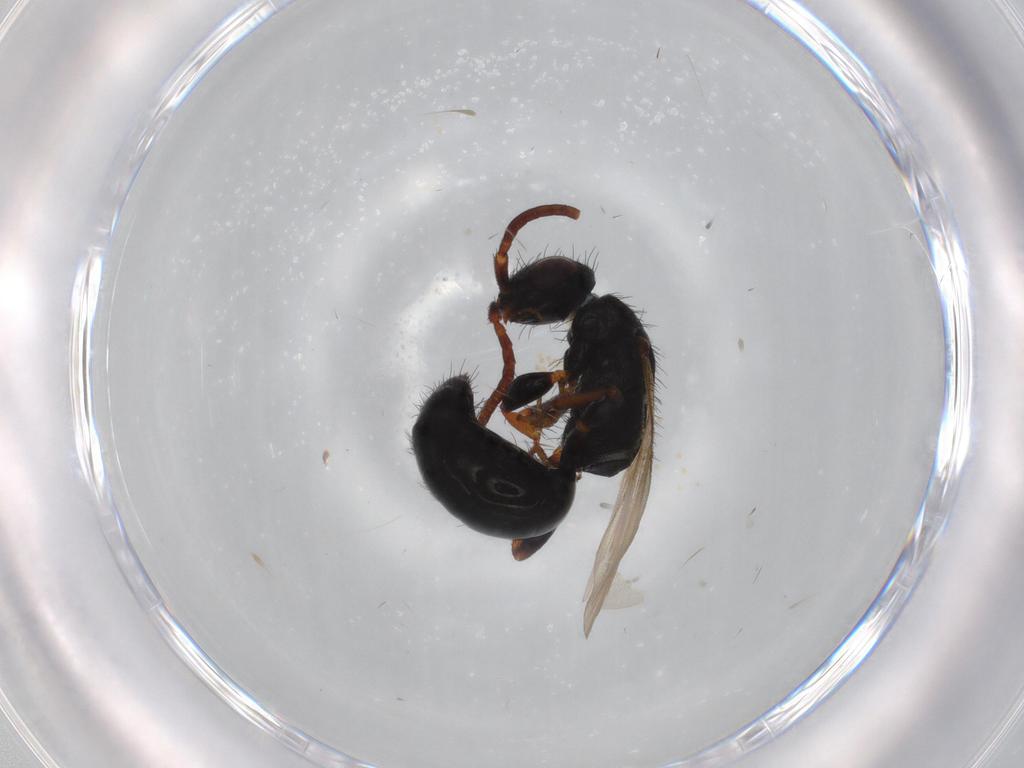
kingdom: Animalia
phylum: Arthropoda
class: Insecta
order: Hymenoptera
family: Bethylidae
